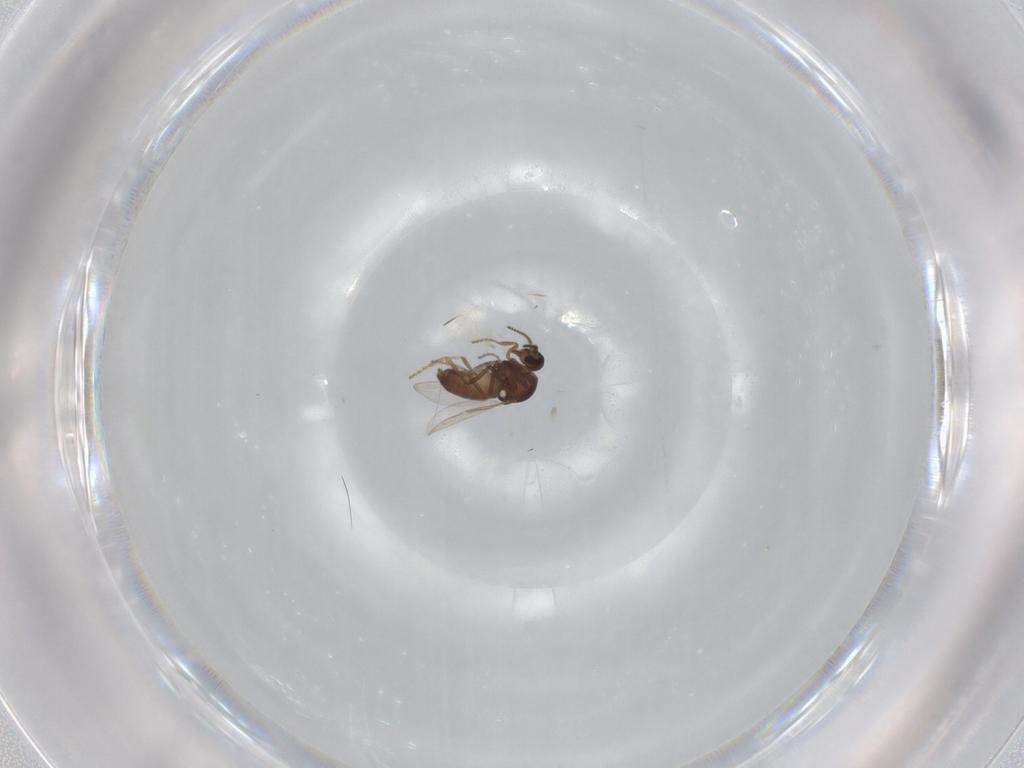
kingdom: Animalia
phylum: Arthropoda
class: Insecta
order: Diptera
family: Ceratopogonidae
